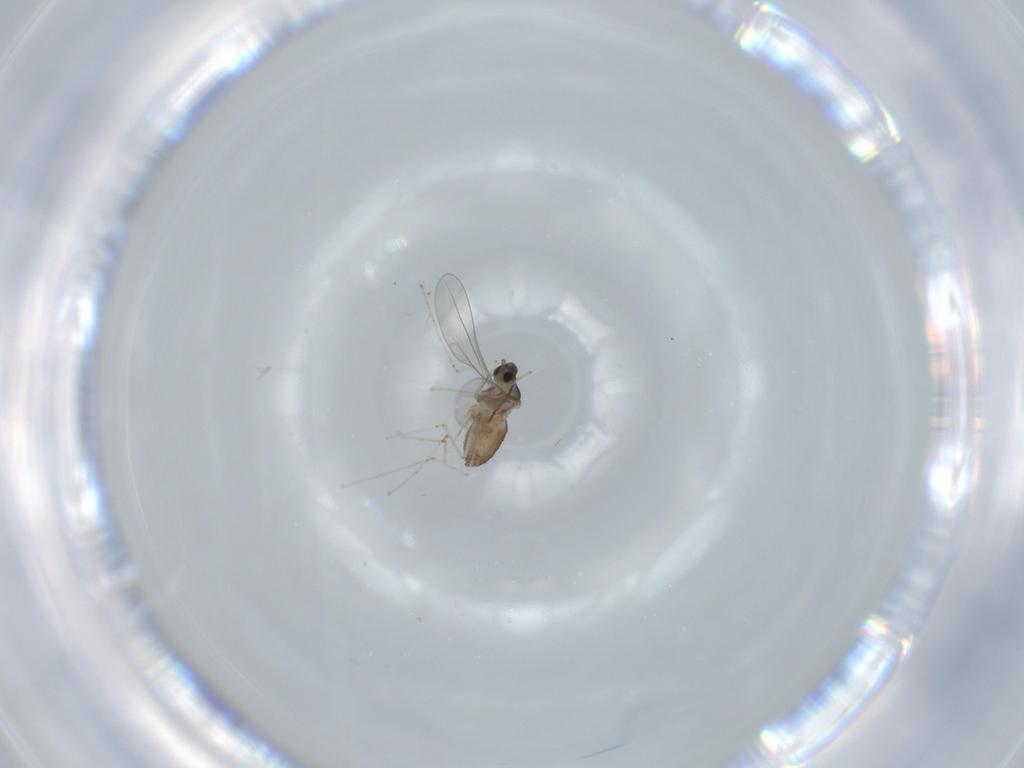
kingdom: Animalia
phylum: Arthropoda
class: Insecta
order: Diptera
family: Cecidomyiidae
